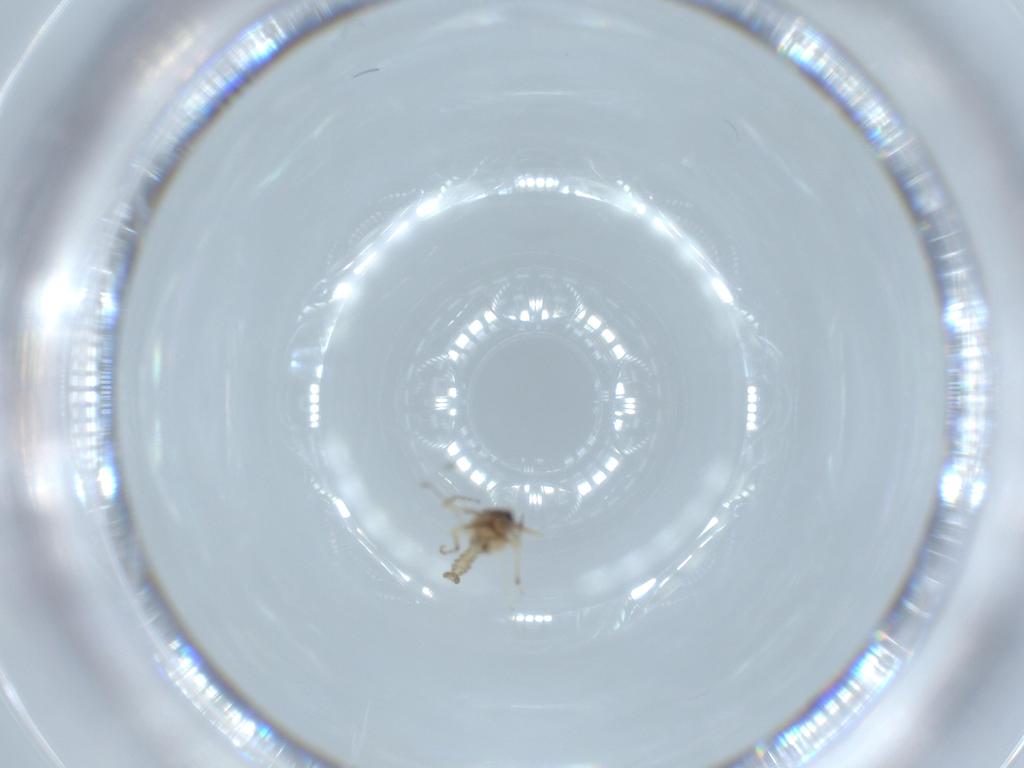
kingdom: Animalia
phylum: Arthropoda
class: Insecta
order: Diptera
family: Ceratopogonidae
